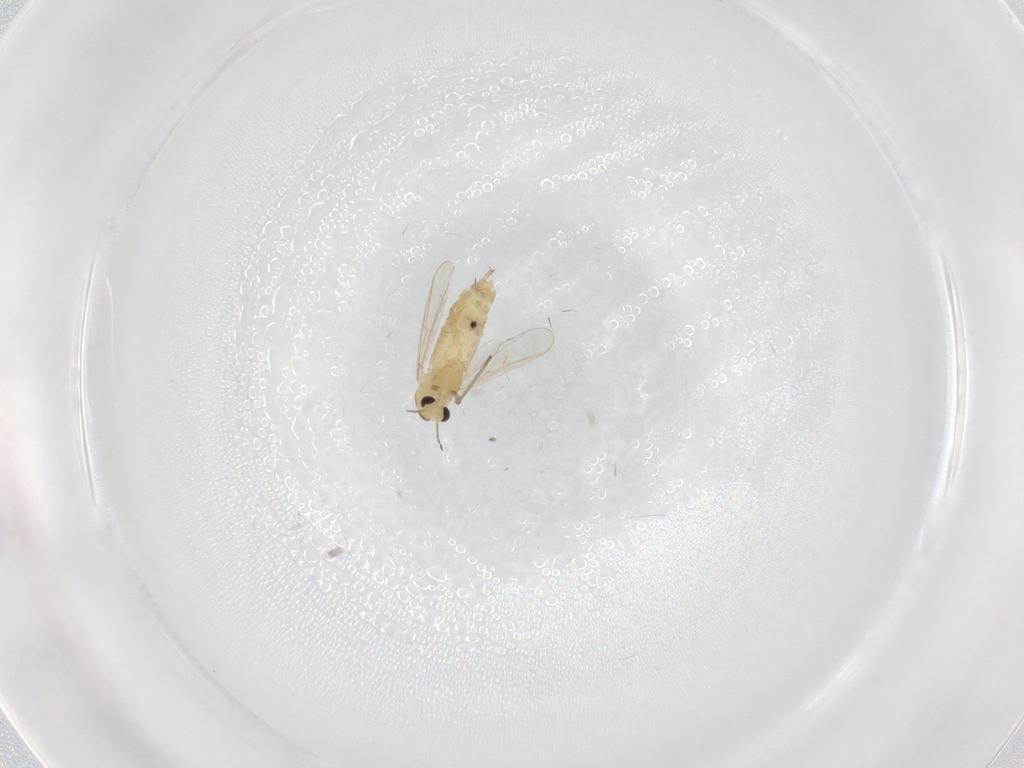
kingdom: Animalia
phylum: Arthropoda
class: Insecta
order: Diptera
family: Chironomidae
